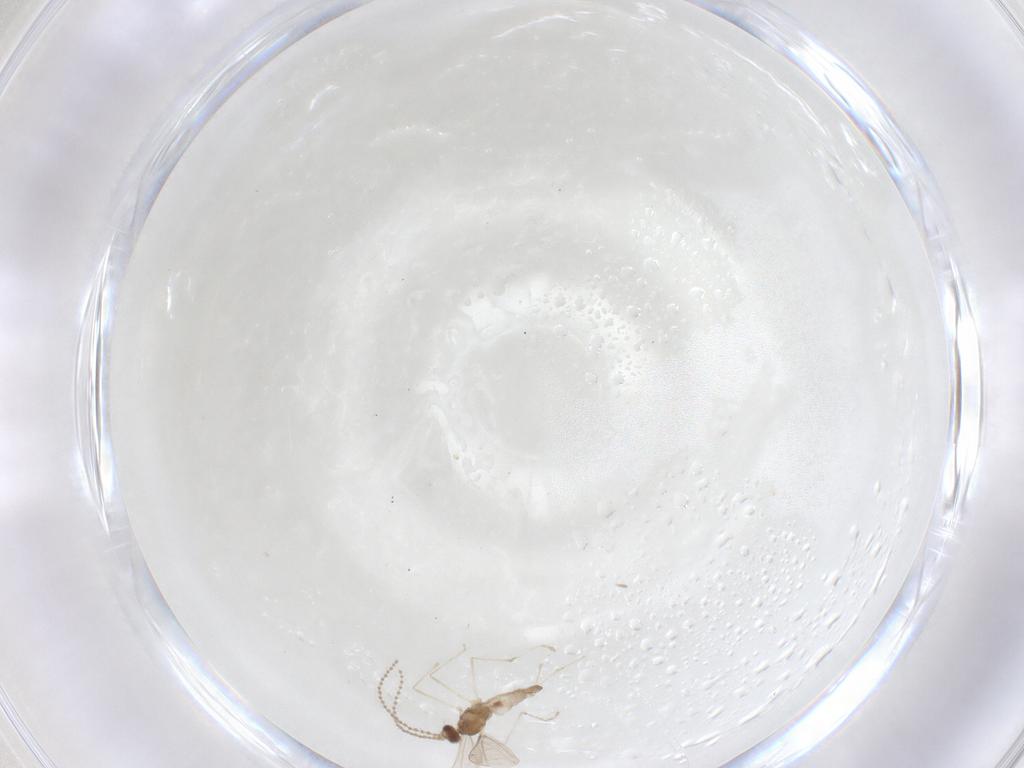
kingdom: Animalia
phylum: Arthropoda
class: Insecta
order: Diptera
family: Cecidomyiidae
